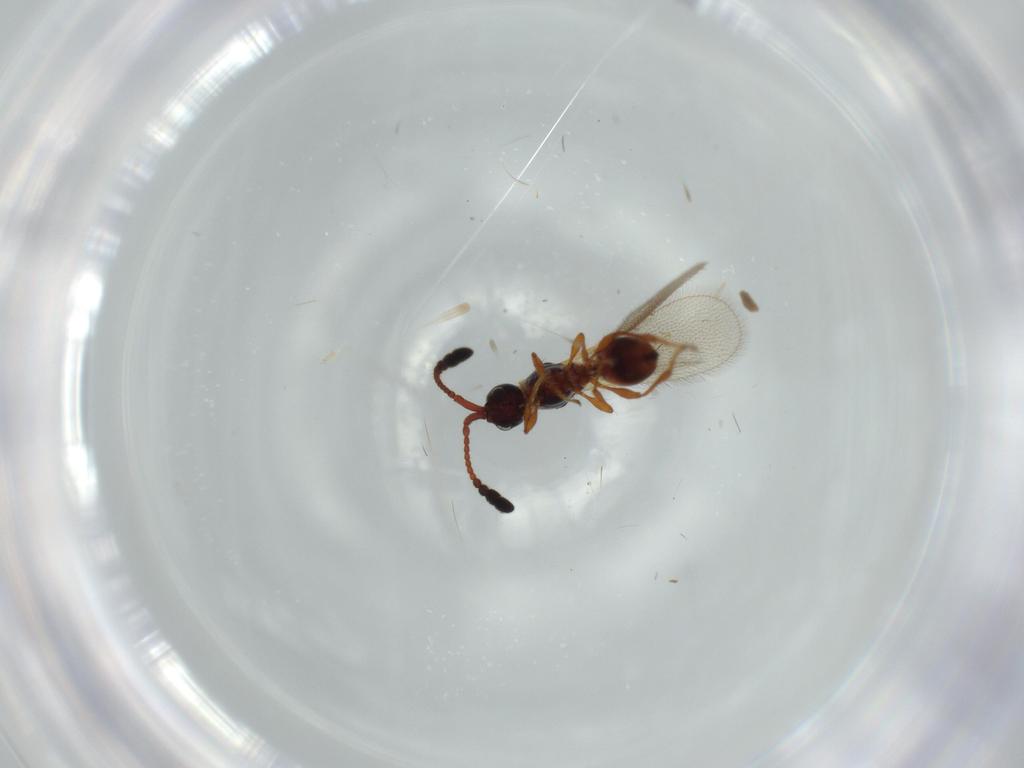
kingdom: Animalia
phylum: Arthropoda
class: Insecta
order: Hymenoptera
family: Diapriidae
